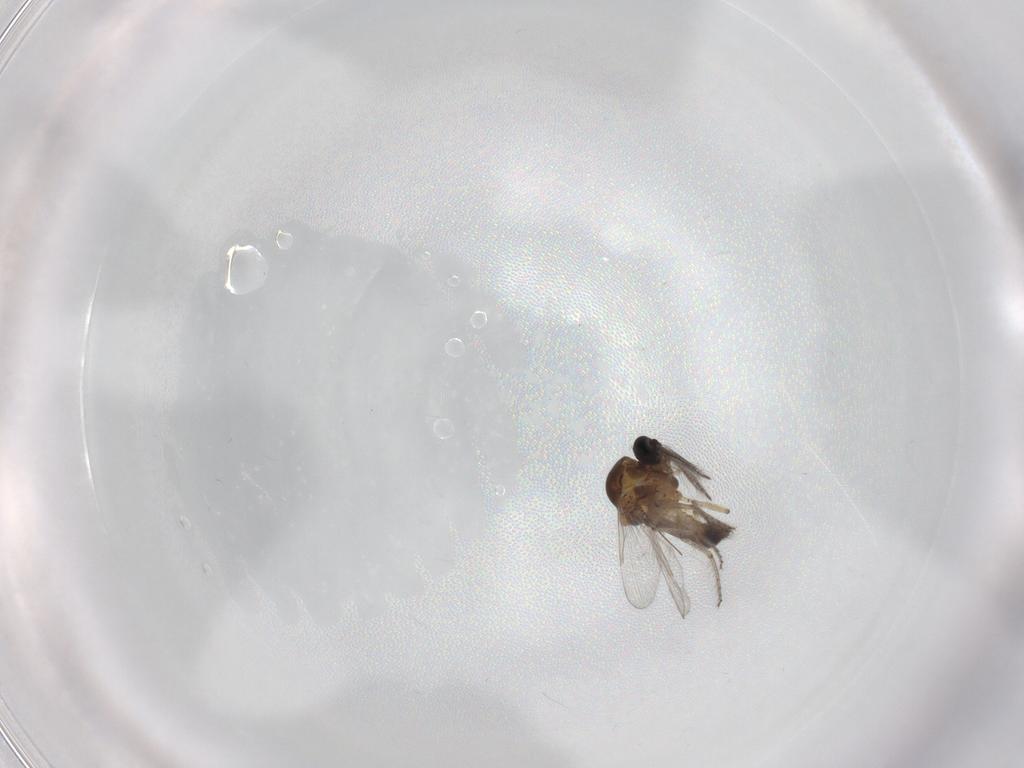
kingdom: Animalia
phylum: Arthropoda
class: Insecta
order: Diptera
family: Ceratopogonidae
